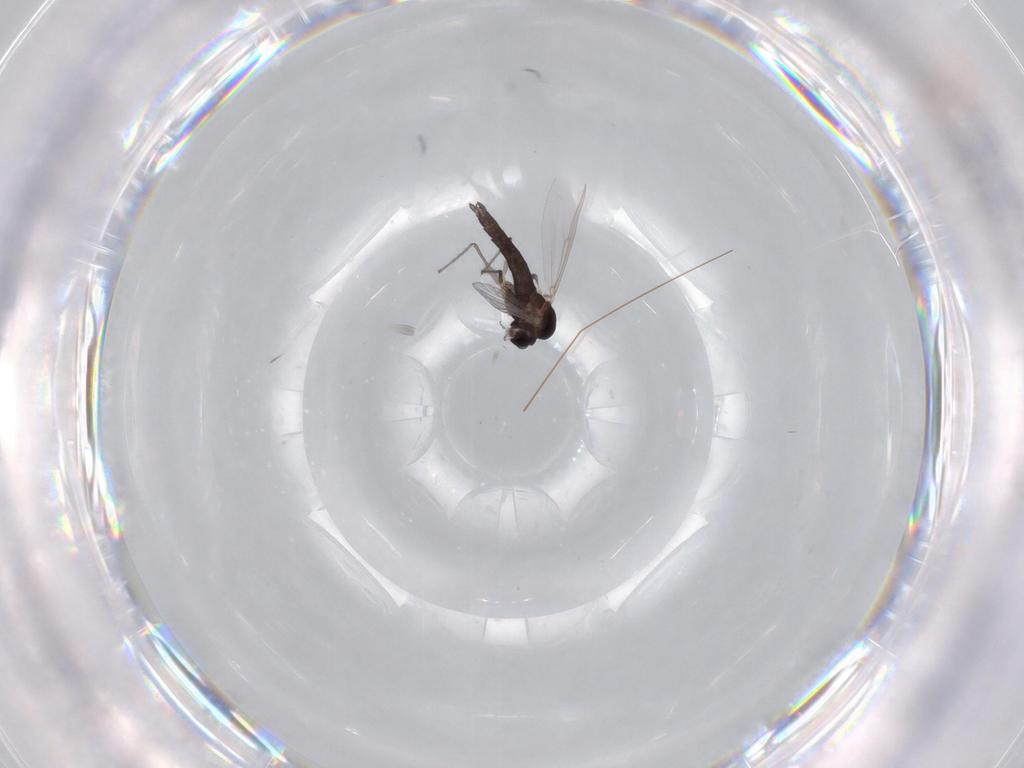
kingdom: Animalia
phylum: Arthropoda
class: Insecta
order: Diptera
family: Chironomidae
